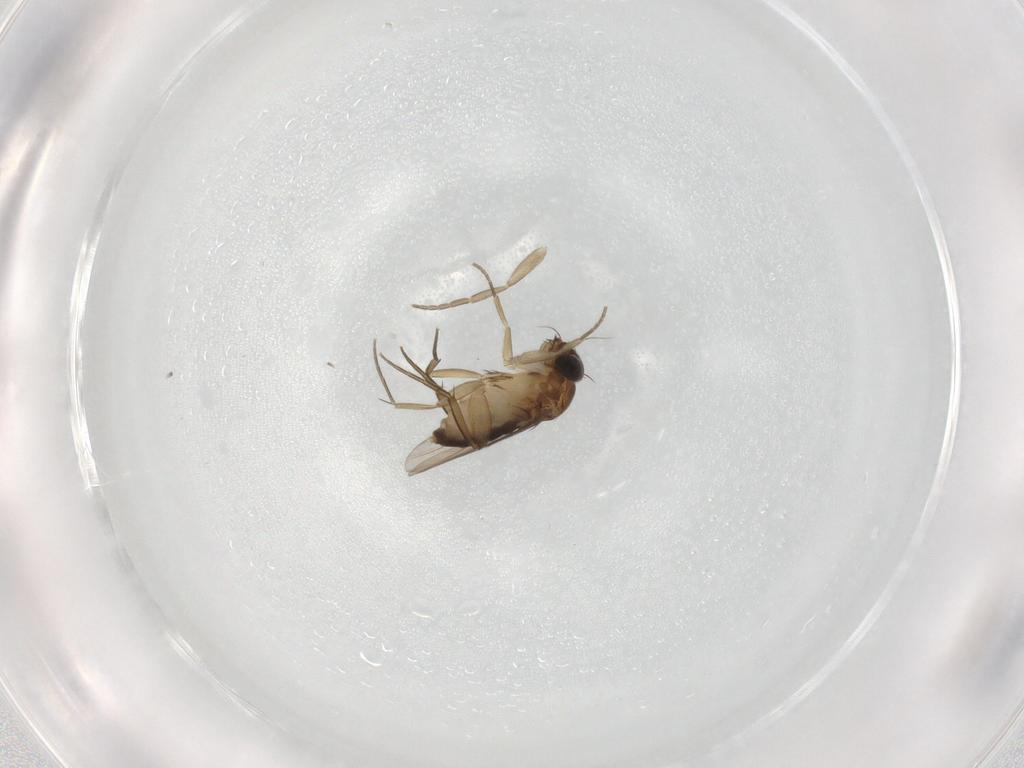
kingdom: Animalia
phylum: Arthropoda
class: Insecta
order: Diptera
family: Phoridae
